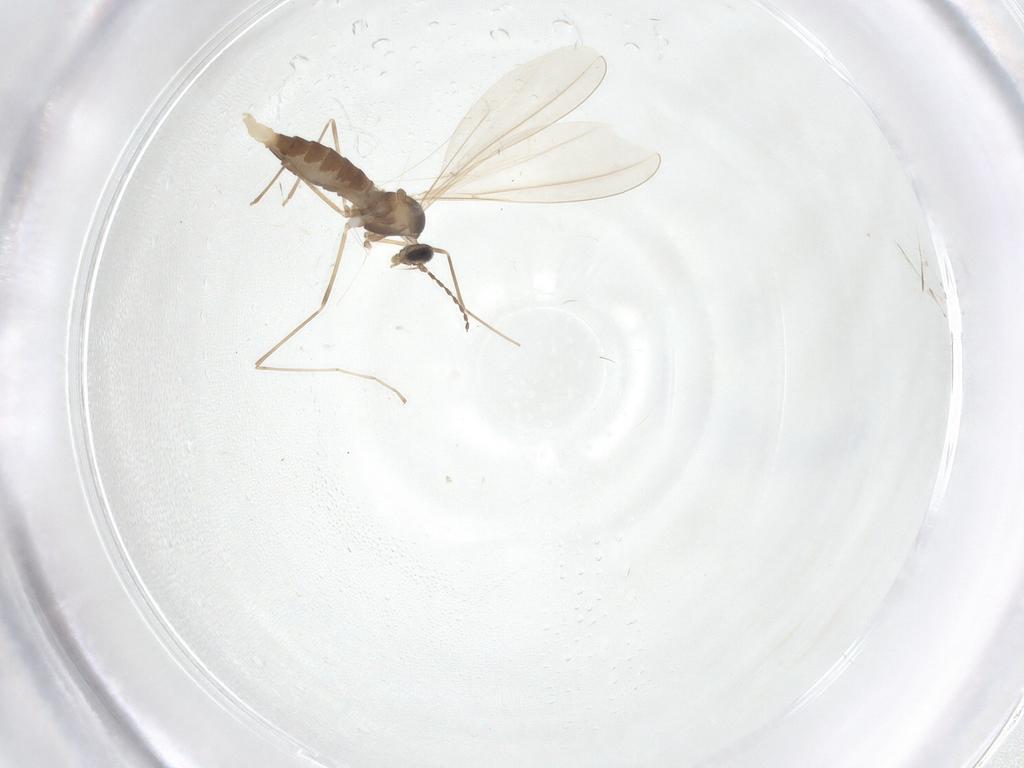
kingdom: Animalia
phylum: Arthropoda
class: Insecta
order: Diptera
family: Cecidomyiidae
